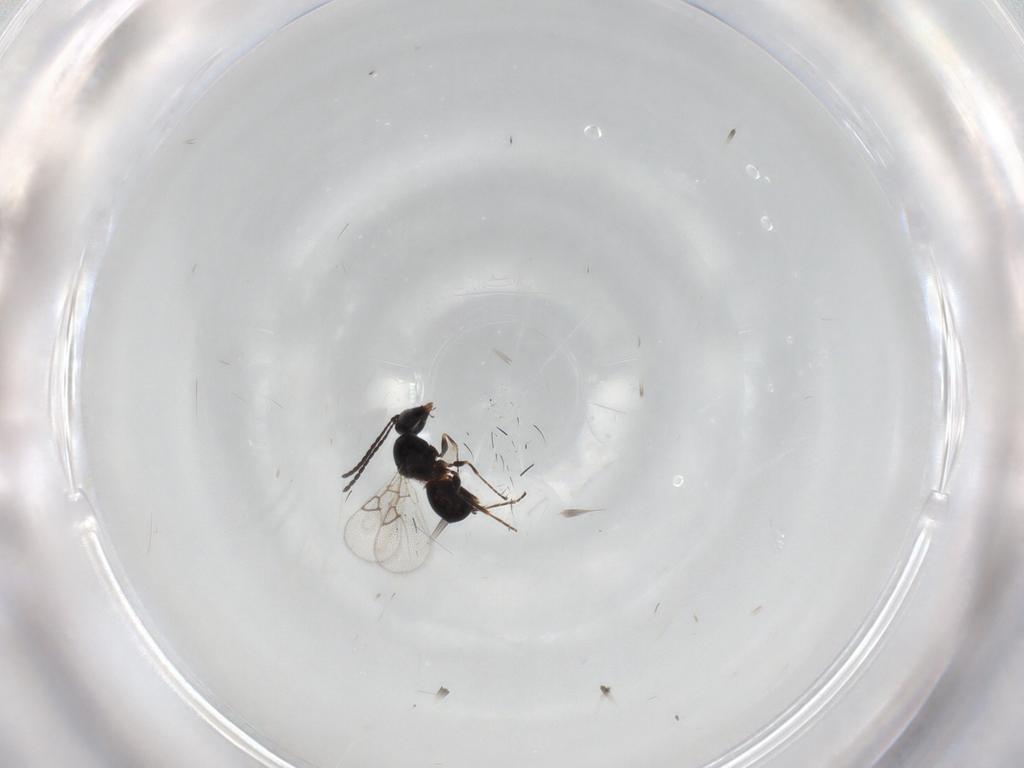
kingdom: Animalia
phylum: Arthropoda
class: Insecta
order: Hymenoptera
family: Figitidae
